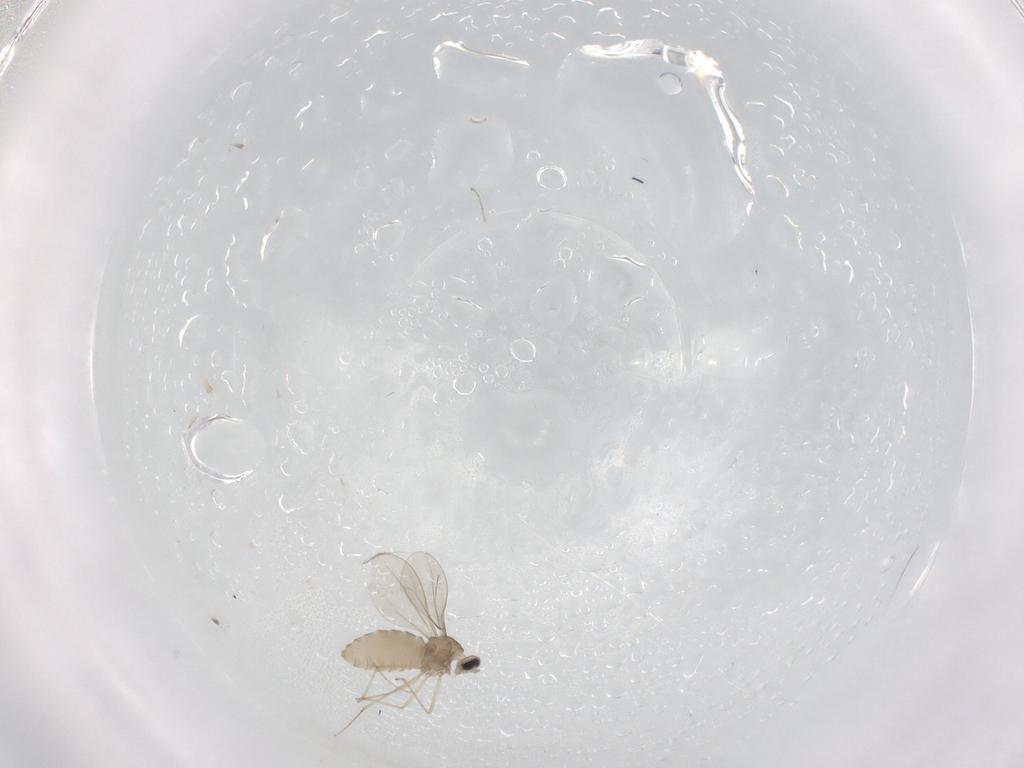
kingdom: Animalia
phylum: Arthropoda
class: Insecta
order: Diptera
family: Cecidomyiidae
